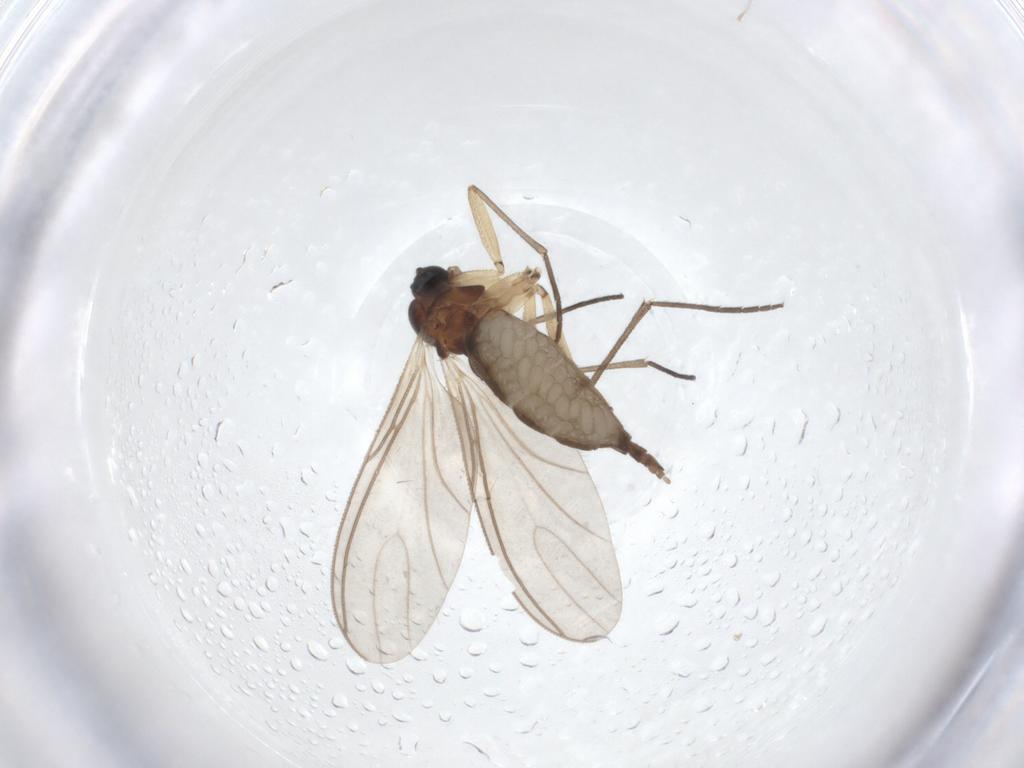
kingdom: Animalia
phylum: Arthropoda
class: Insecta
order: Diptera
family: Sciaridae
